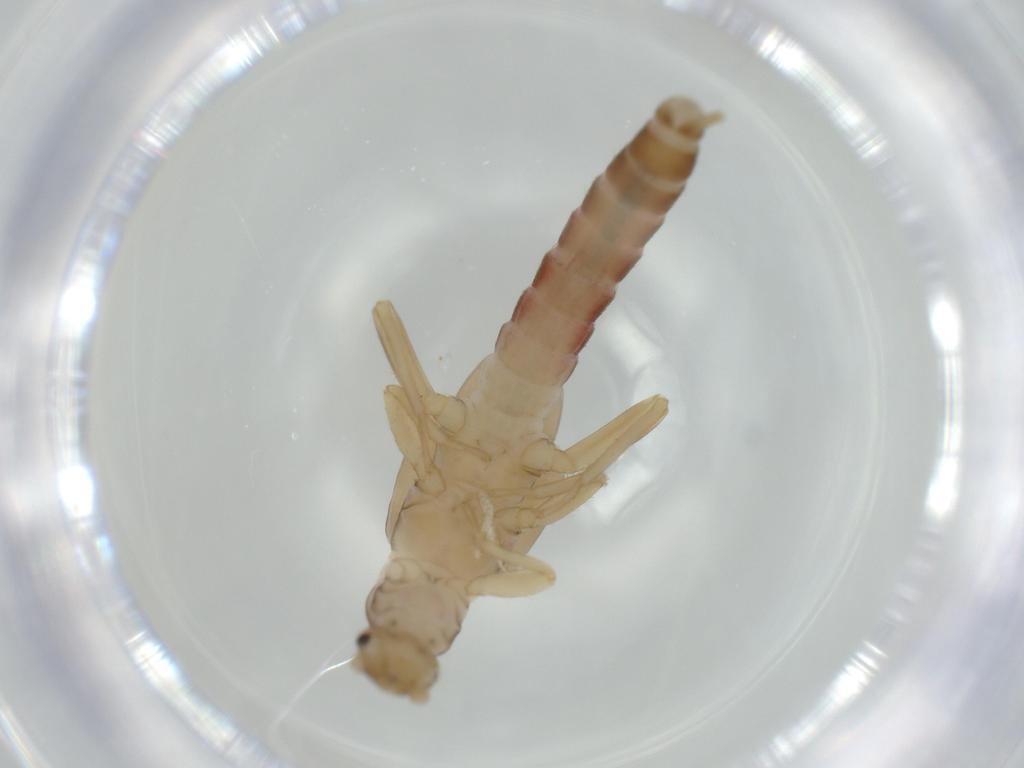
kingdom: Animalia
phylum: Arthropoda
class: Insecta
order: Plecoptera
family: Leuctridae
